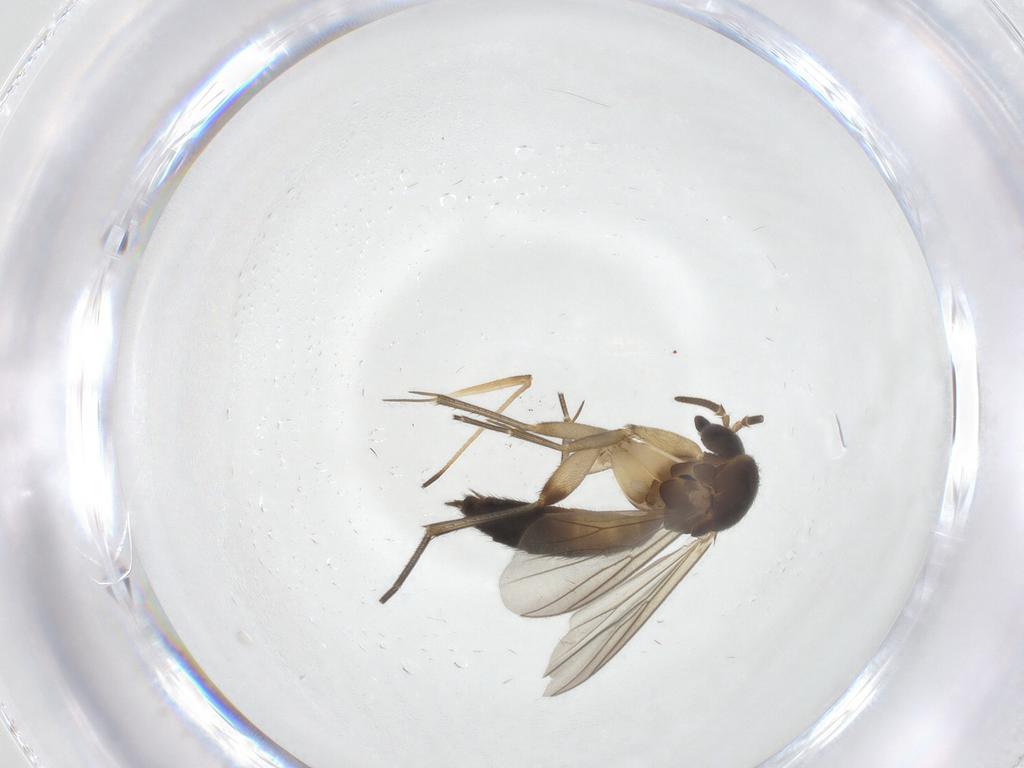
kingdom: Animalia
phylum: Arthropoda
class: Insecta
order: Diptera
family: Mycetophilidae
